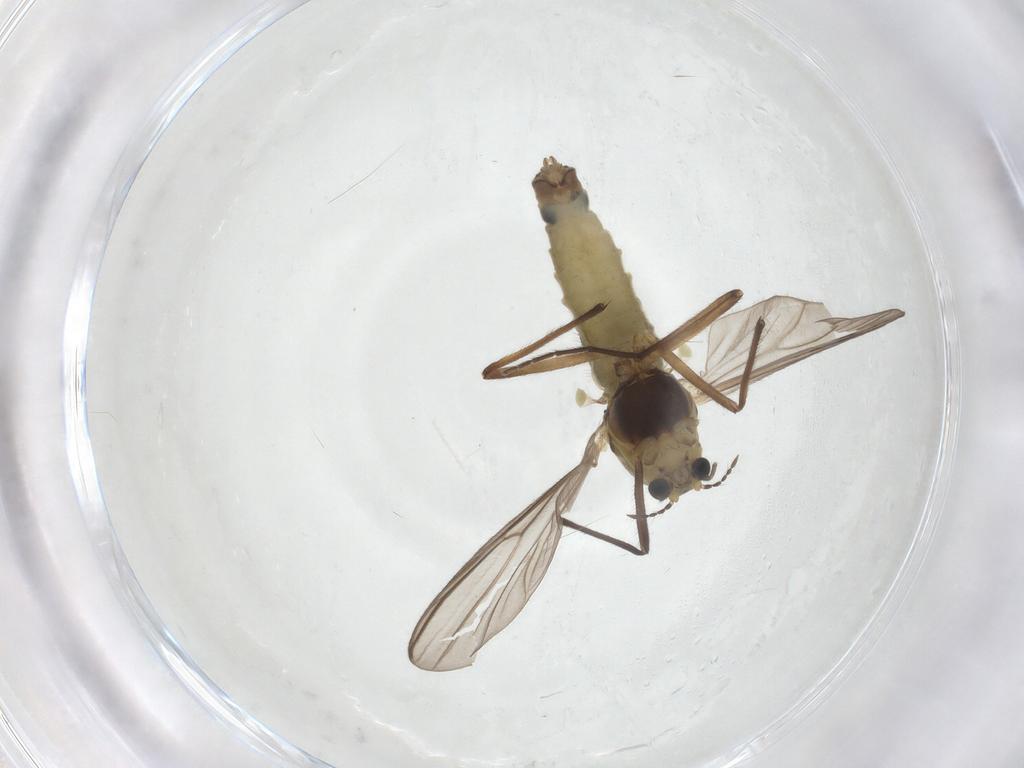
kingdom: Animalia
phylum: Arthropoda
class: Insecta
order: Diptera
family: Chironomidae
